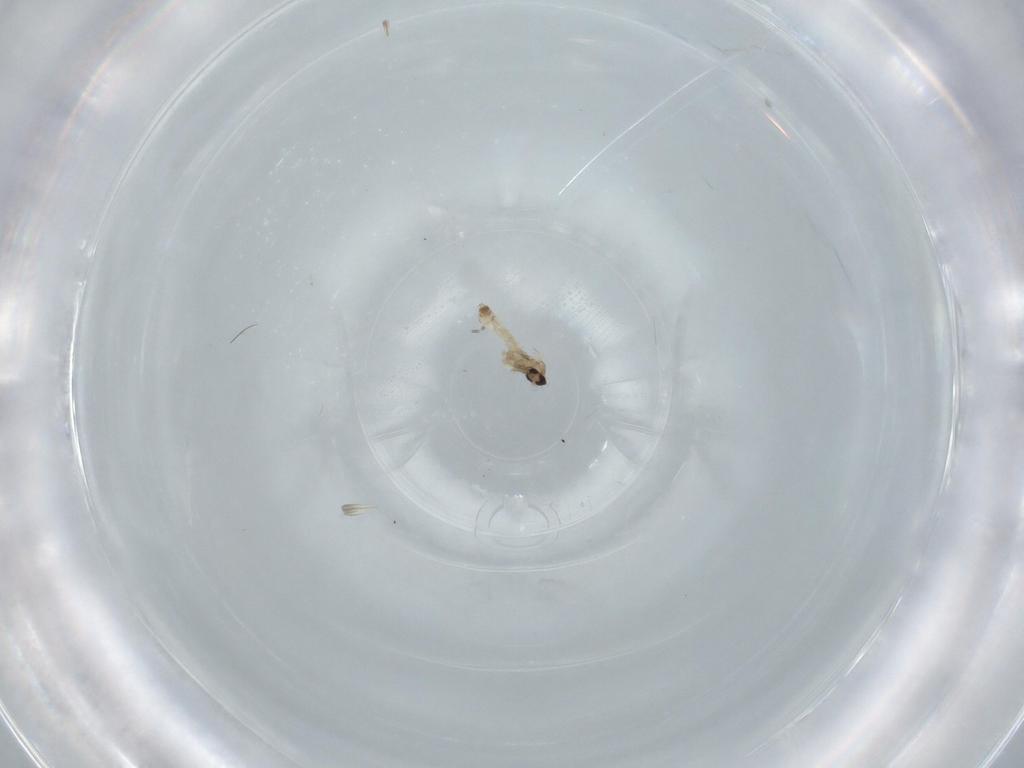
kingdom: Animalia
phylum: Arthropoda
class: Insecta
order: Diptera
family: Cecidomyiidae
